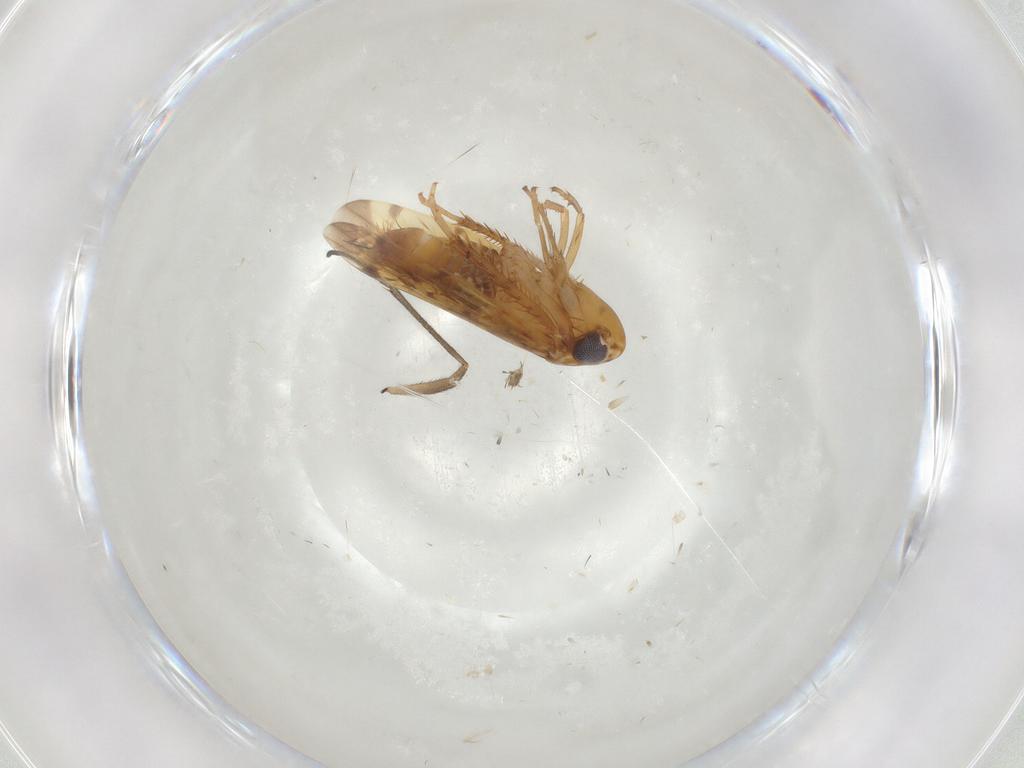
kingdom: Animalia
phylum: Arthropoda
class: Insecta
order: Hemiptera
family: Cicadellidae
